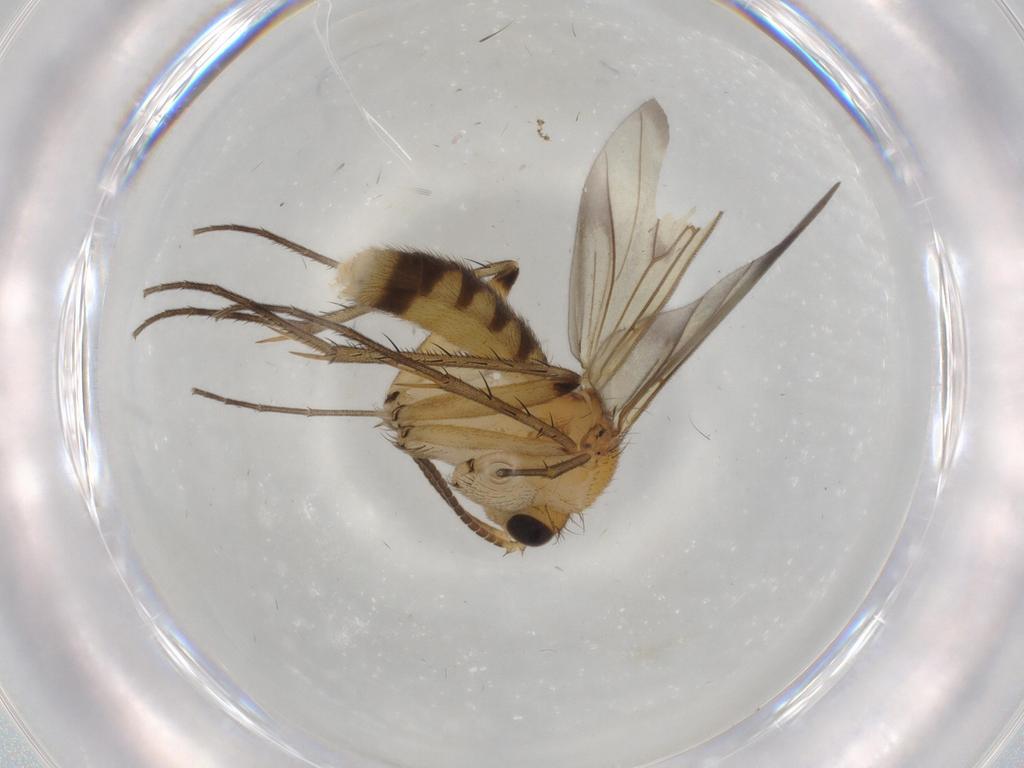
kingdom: Animalia
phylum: Arthropoda
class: Insecta
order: Diptera
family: Mycetophilidae
